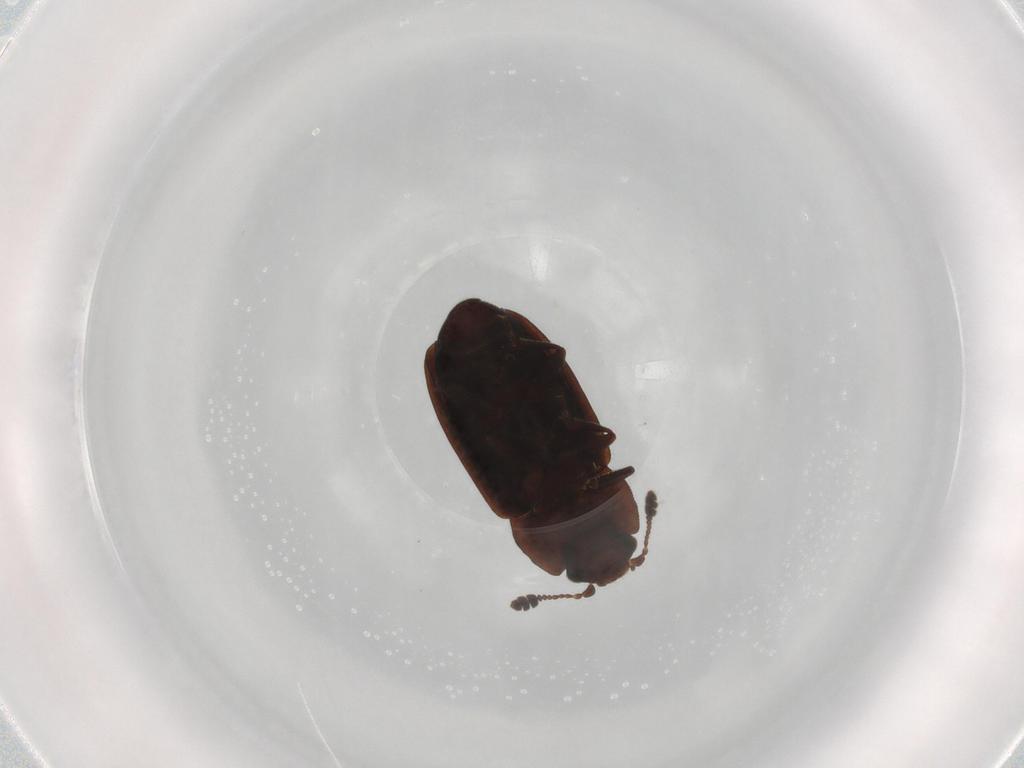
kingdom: Animalia
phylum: Arthropoda
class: Insecta
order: Coleoptera
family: Nitidulidae
